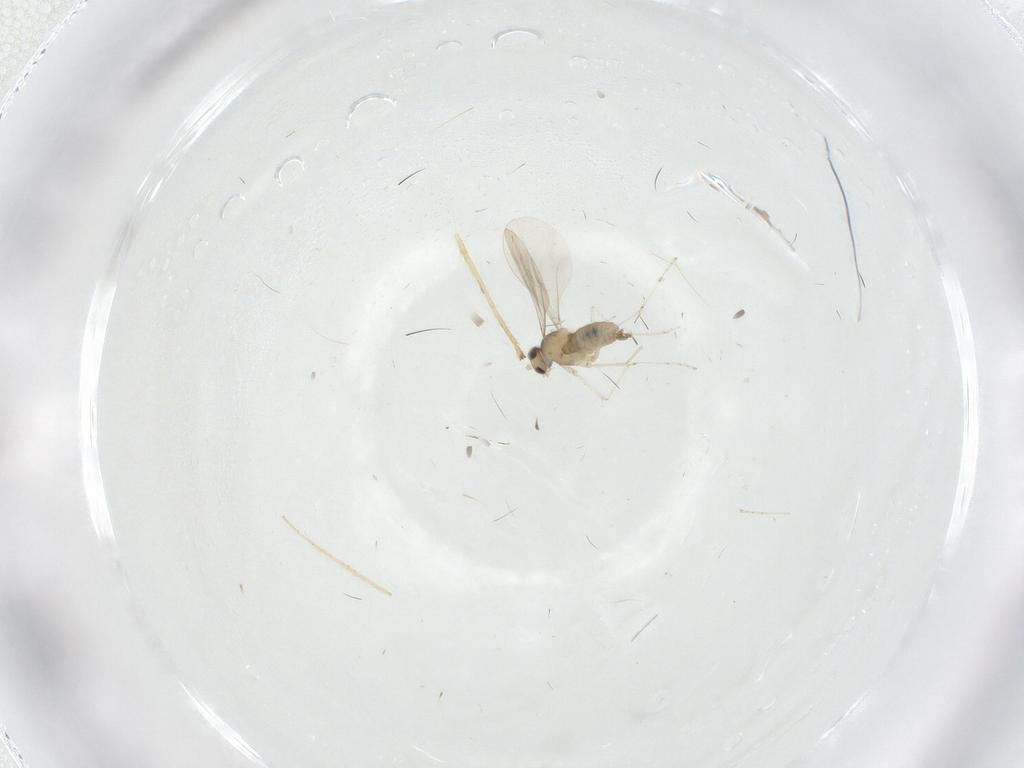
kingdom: Animalia
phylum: Arthropoda
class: Insecta
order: Diptera
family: Cecidomyiidae
